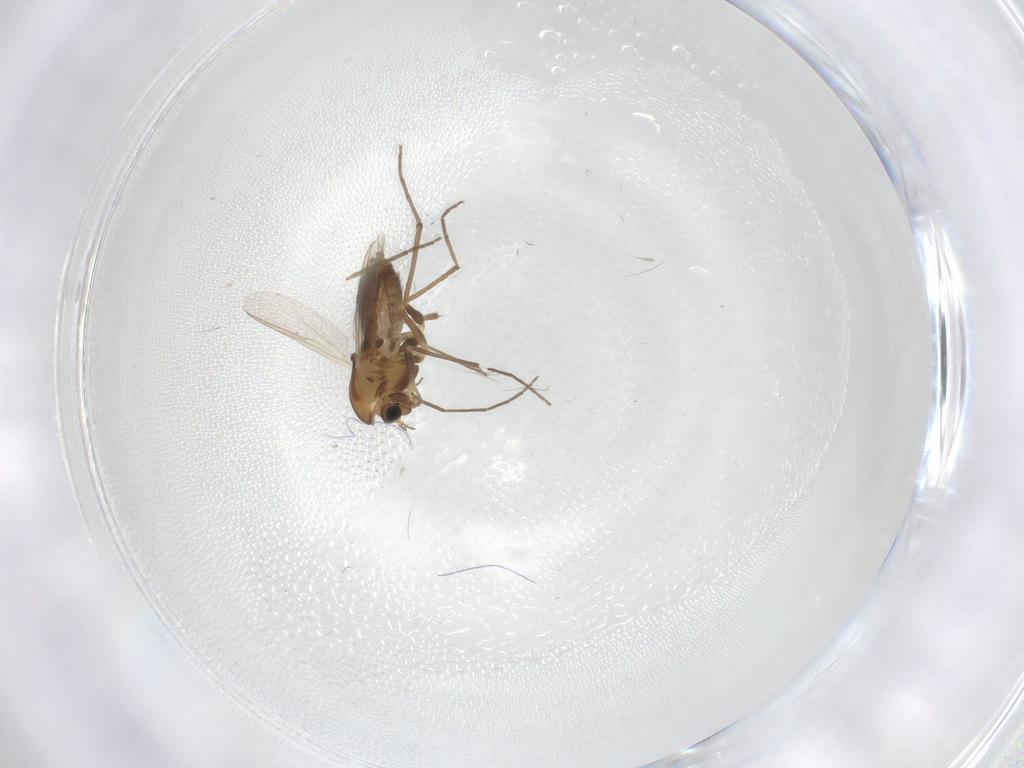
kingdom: Animalia
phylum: Arthropoda
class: Insecta
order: Diptera
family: Chironomidae
